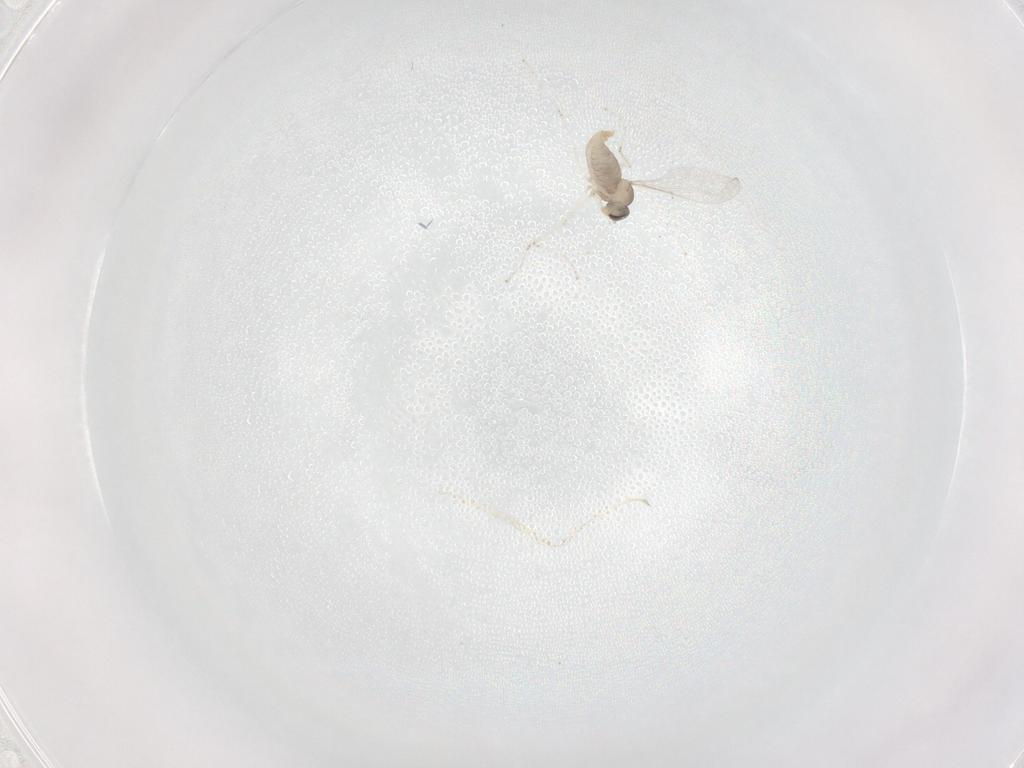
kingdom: Animalia
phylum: Arthropoda
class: Insecta
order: Diptera
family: Cecidomyiidae
